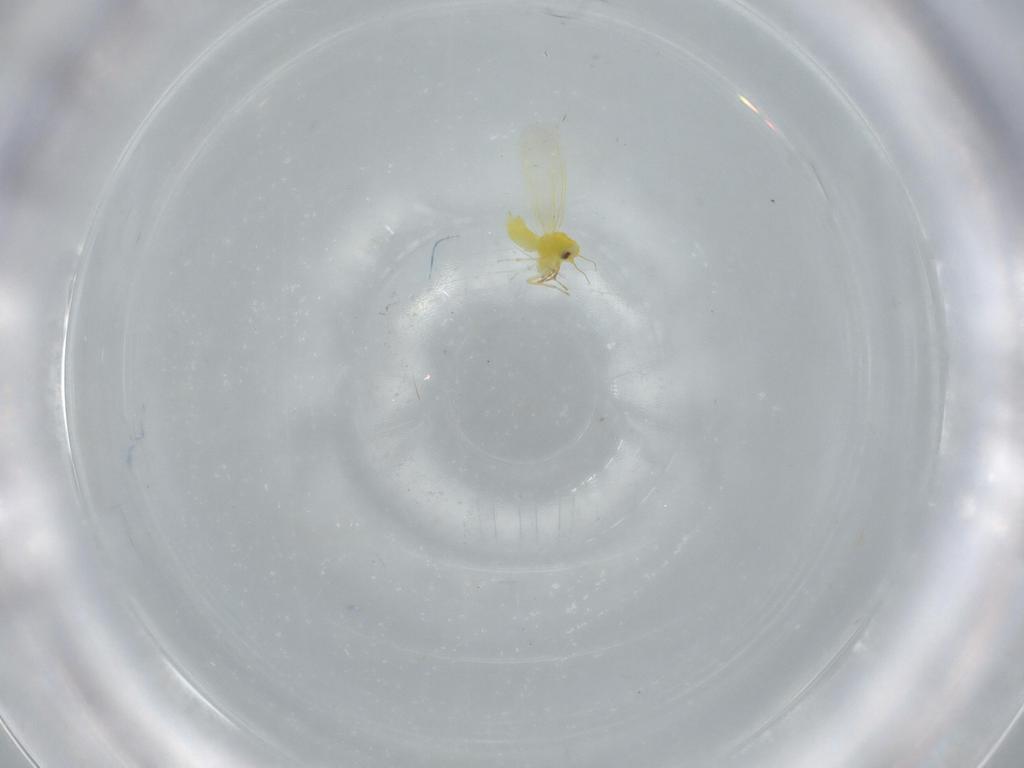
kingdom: Animalia
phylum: Arthropoda
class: Insecta
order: Hemiptera
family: Aleyrodidae
